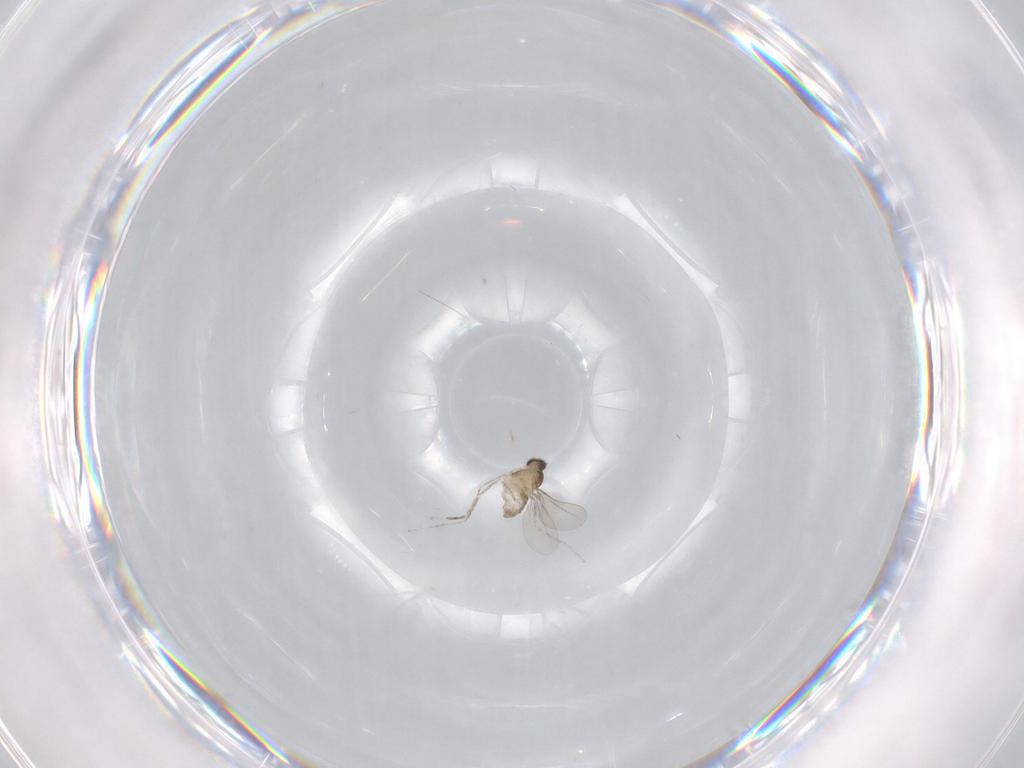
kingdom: Animalia
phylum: Arthropoda
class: Insecta
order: Diptera
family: Cecidomyiidae
